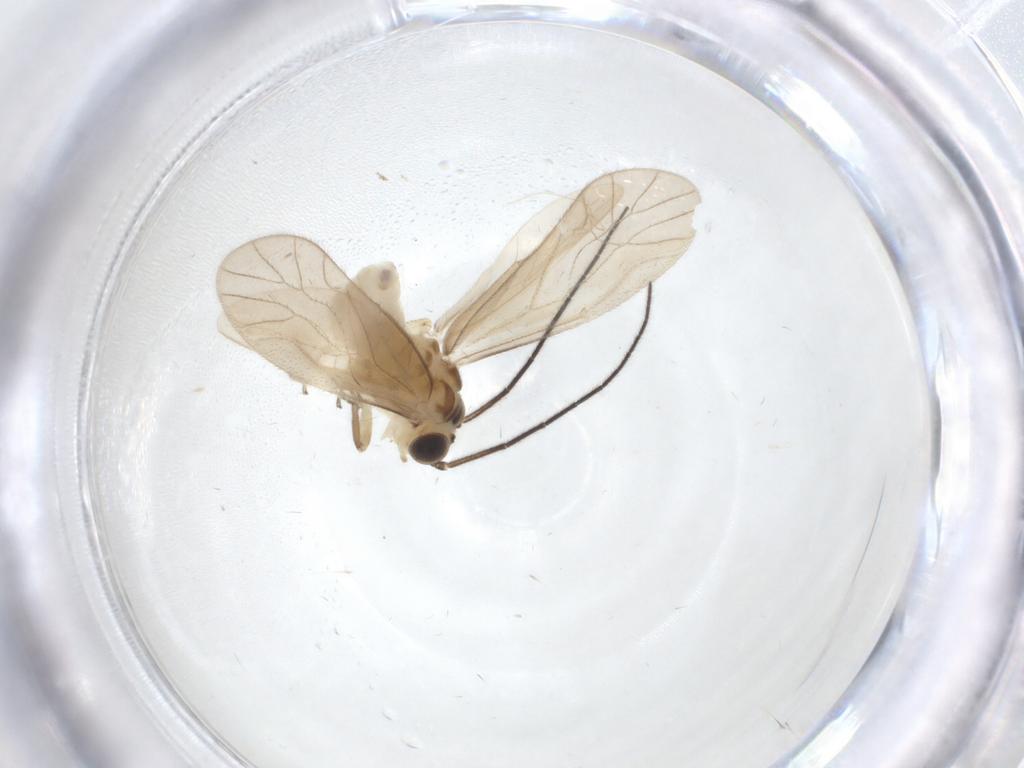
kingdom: Animalia
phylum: Arthropoda
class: Insecta
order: Psocodea
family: Caeciliusidae
